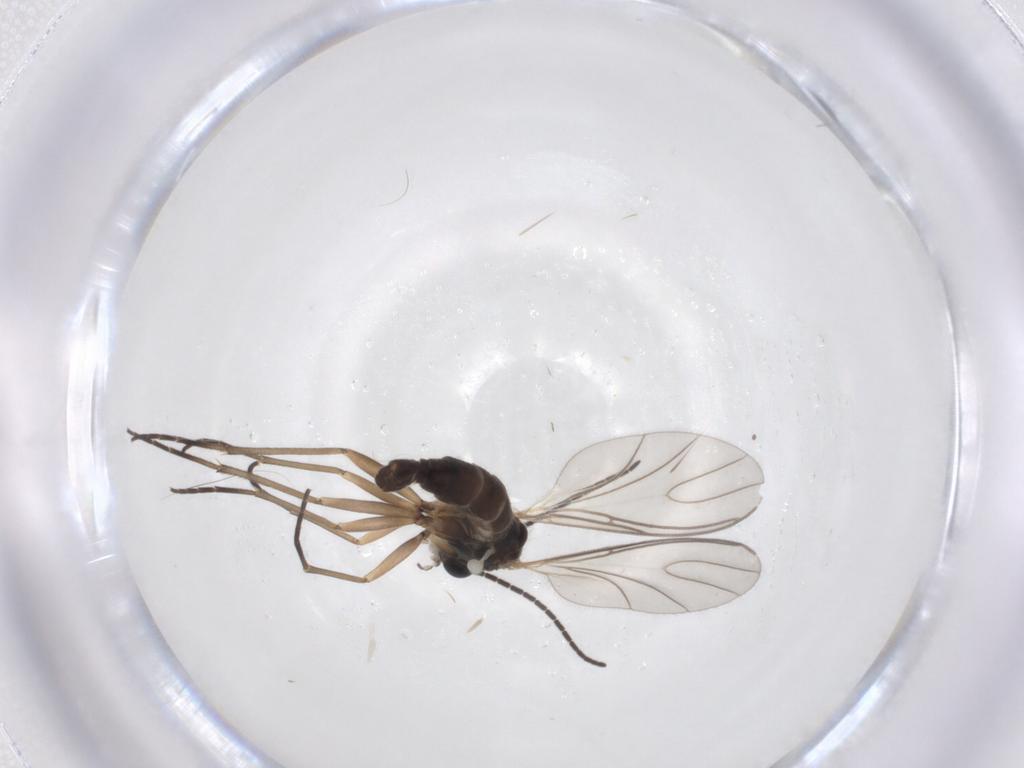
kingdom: Animalia
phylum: Arthropoda
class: Insecta
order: Diptera
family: Sciaridae
